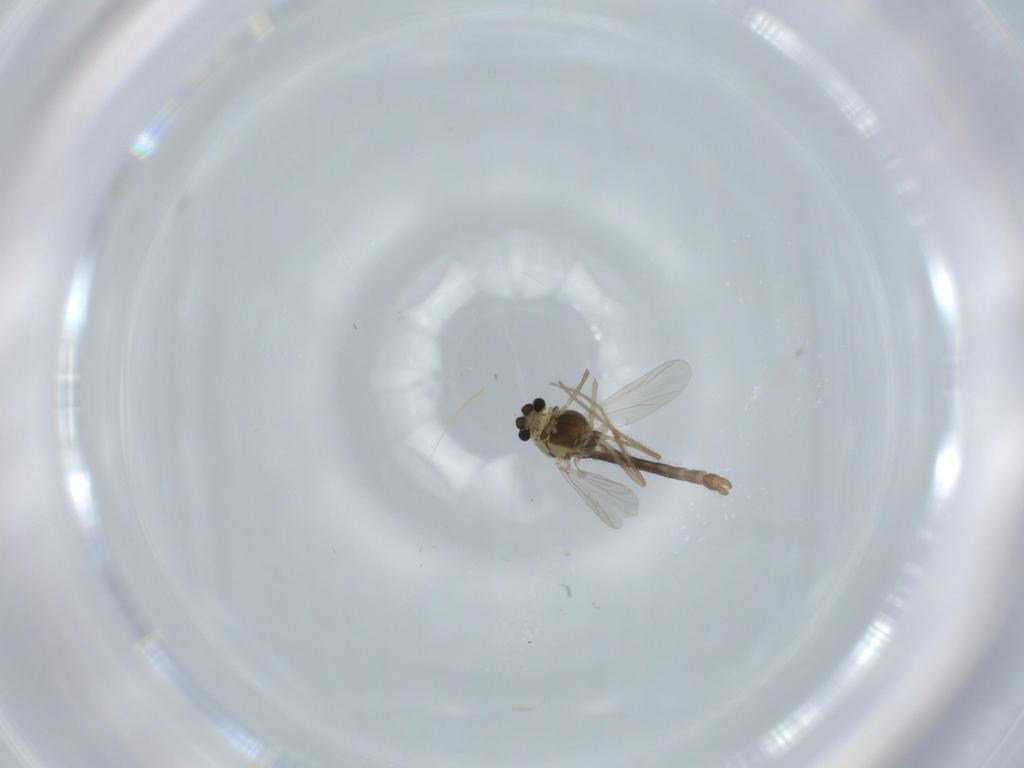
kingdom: Animalia
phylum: Arthropoda
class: Insecta
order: Diptera
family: Chironomidae
